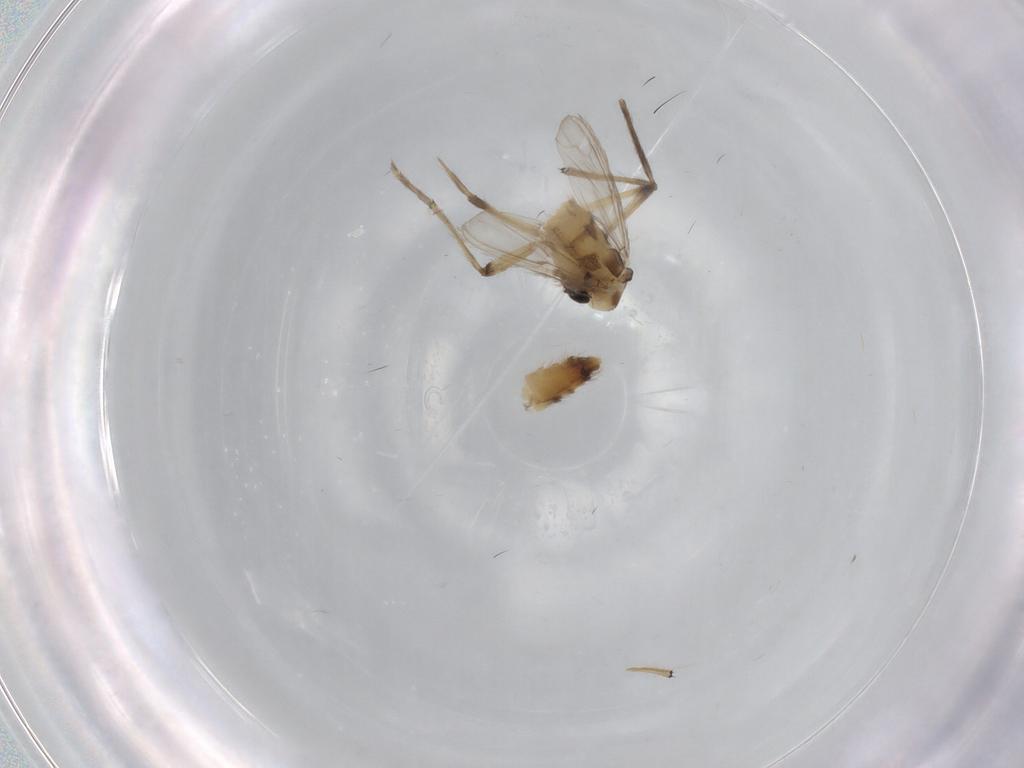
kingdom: Animalia
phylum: Arthropoda
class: Insecta
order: Diptera
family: Chironomidae
